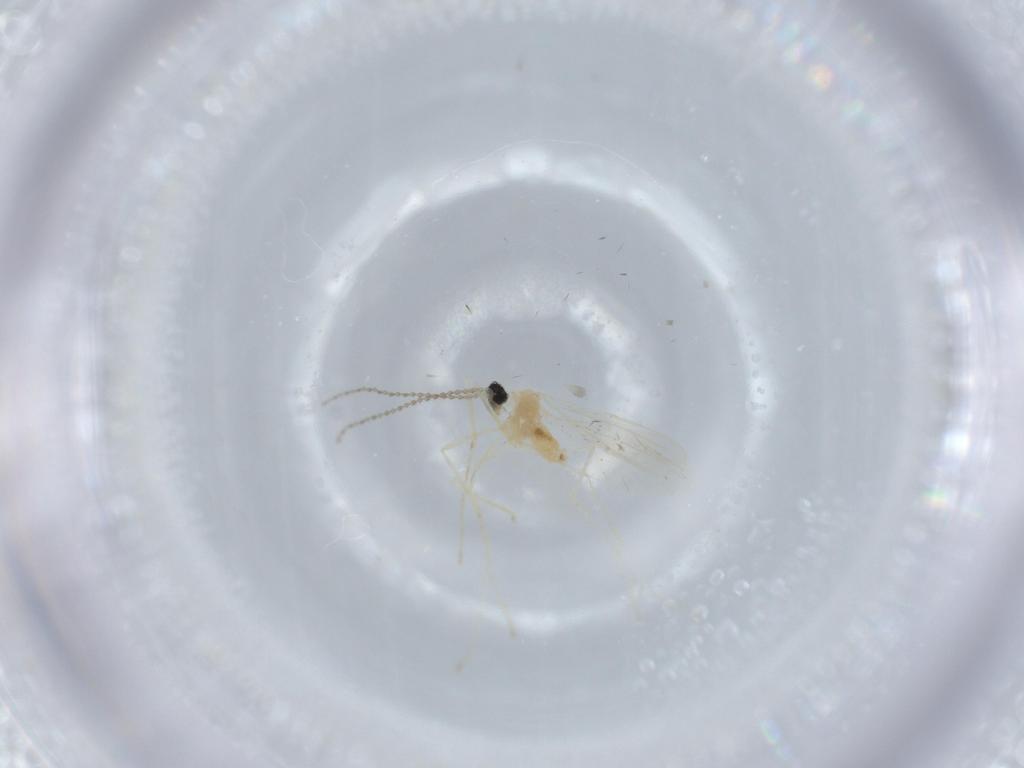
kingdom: Animalia
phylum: Arthropoda
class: Insecta
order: Diptera
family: Cecidomyiidae
